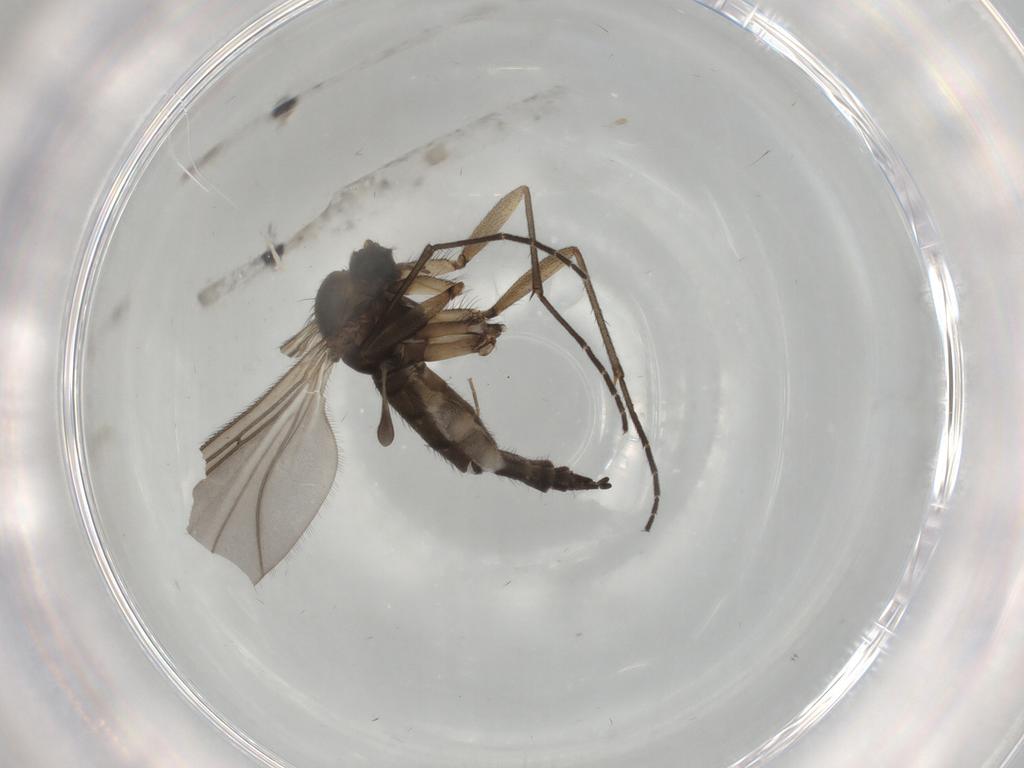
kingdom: Animalia
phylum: Arthropoda
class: Insecta
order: Diptera
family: Sciaridae
